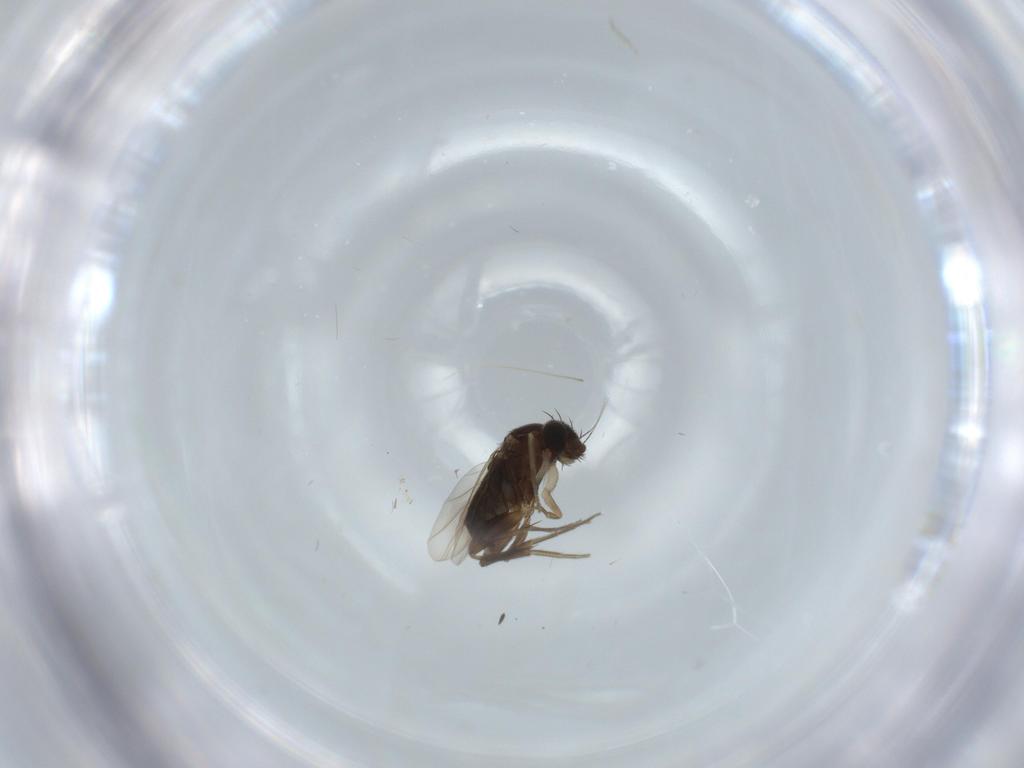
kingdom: Animalia
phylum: Arthropoda
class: Insecta
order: Diptera
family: Phoridae
